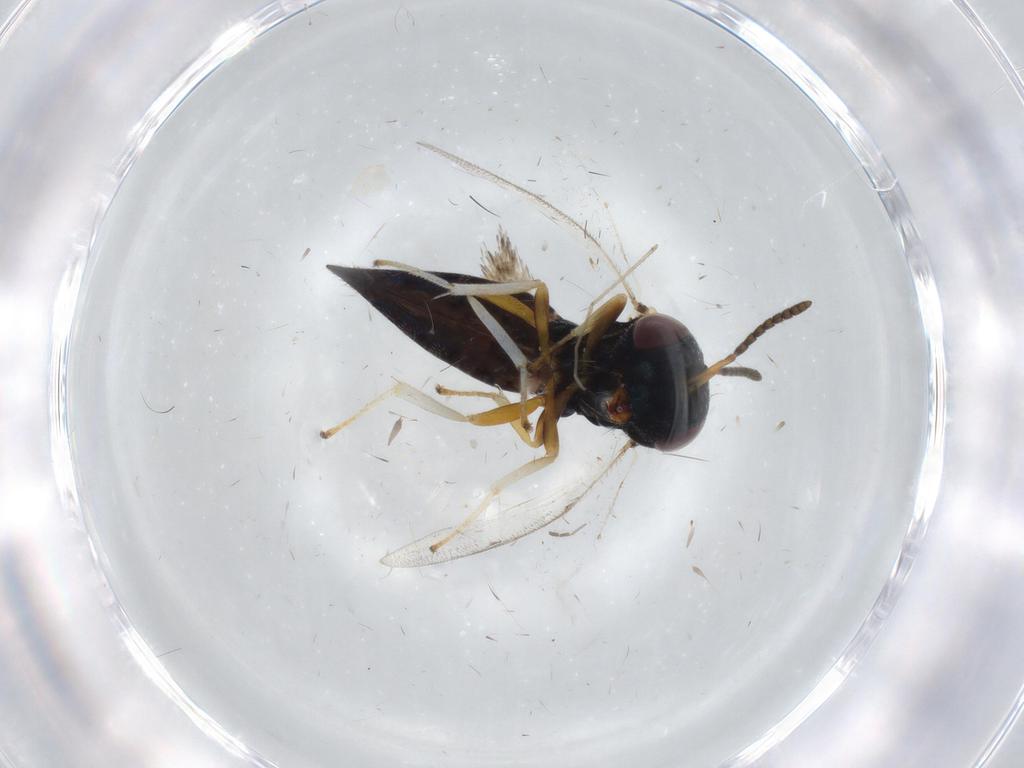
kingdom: Animalia
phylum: Arthropoda
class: Insecta
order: Hymenoptera
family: Pteromalidae
